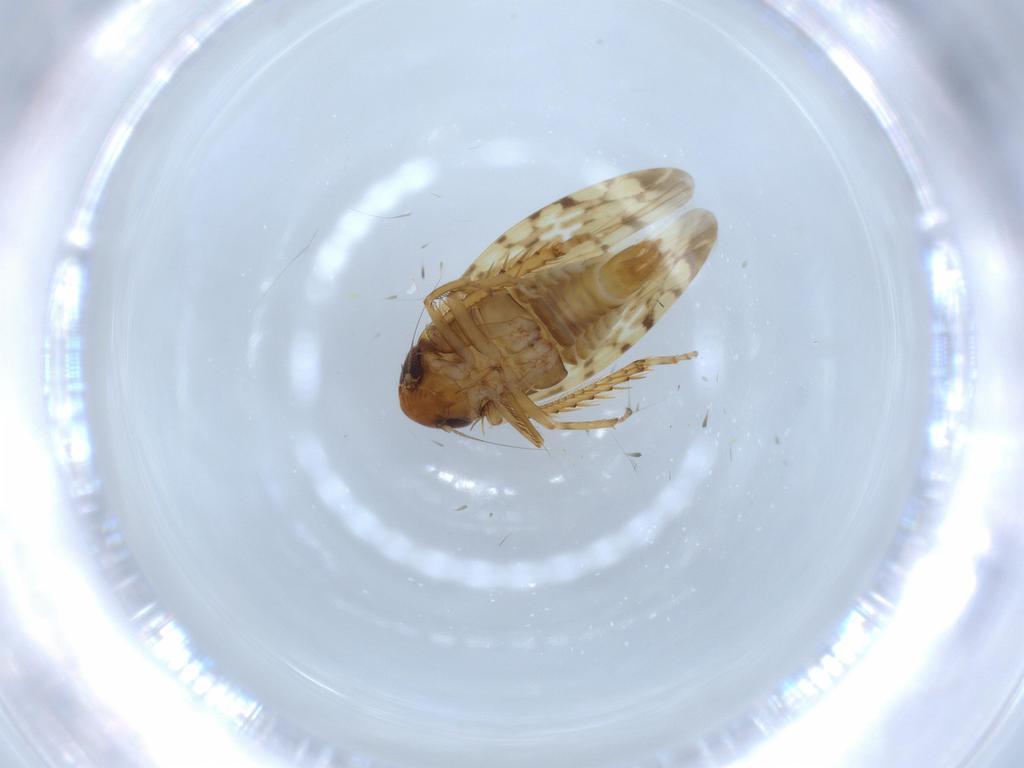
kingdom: Animalia
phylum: Arthropoda
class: Insecta
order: Hemiptera
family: Cicadellidae
